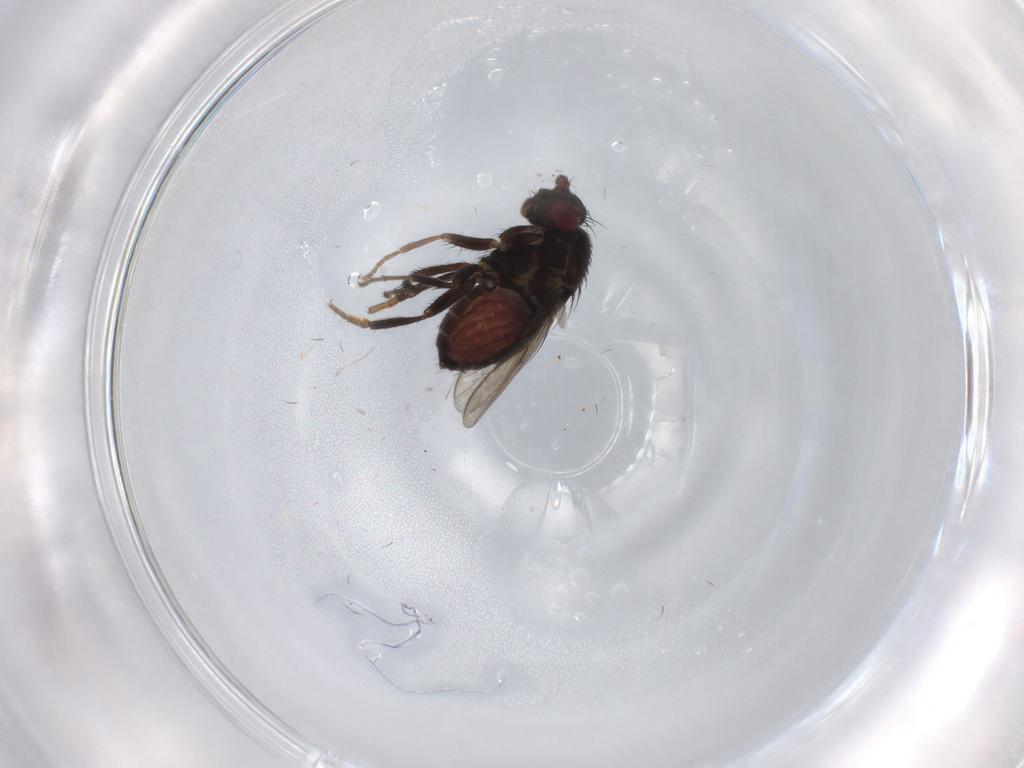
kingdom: Animalia
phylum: Arthropoda
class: Insecta
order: Diptera
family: Sphaeroceridae
